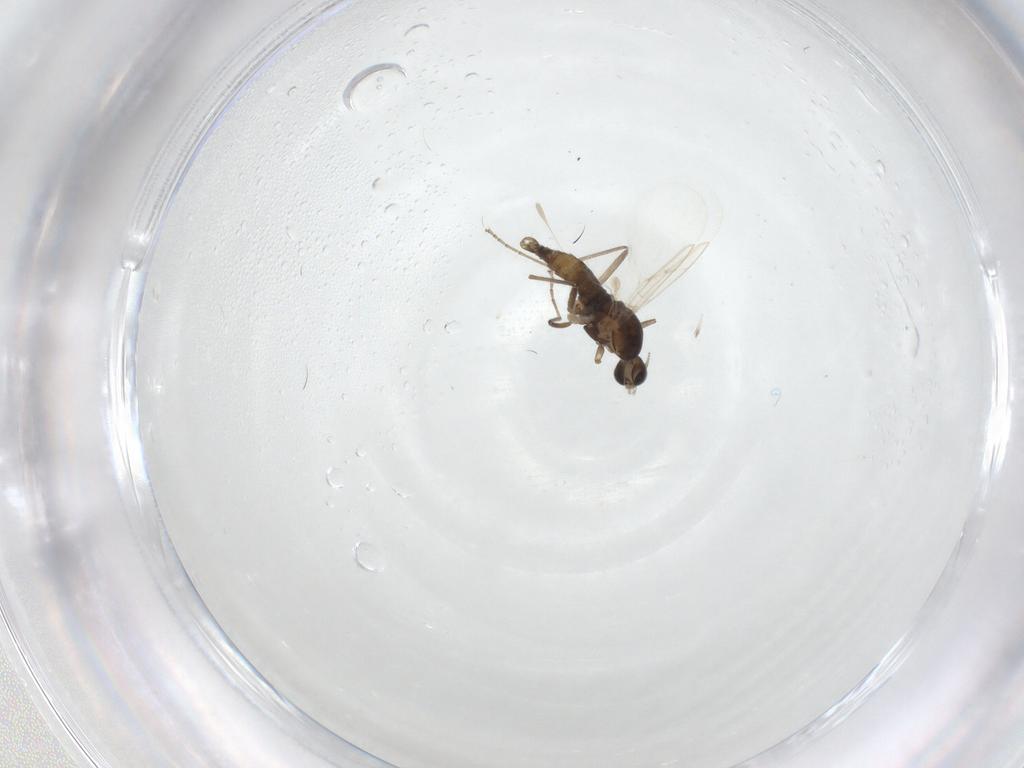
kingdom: Animalia
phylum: Arthropoda
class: Insecta
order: Diptera
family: Cecidomyiidae
